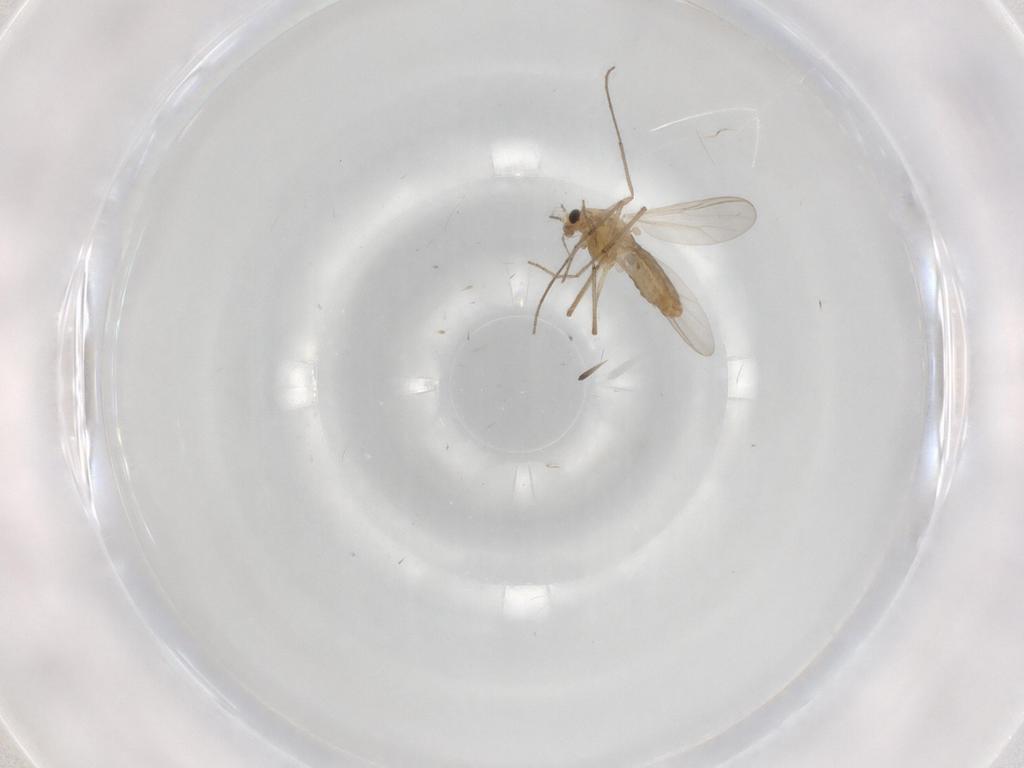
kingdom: Animalia
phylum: Arthropoda
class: Insecta
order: Diptera
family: Chironomidae
